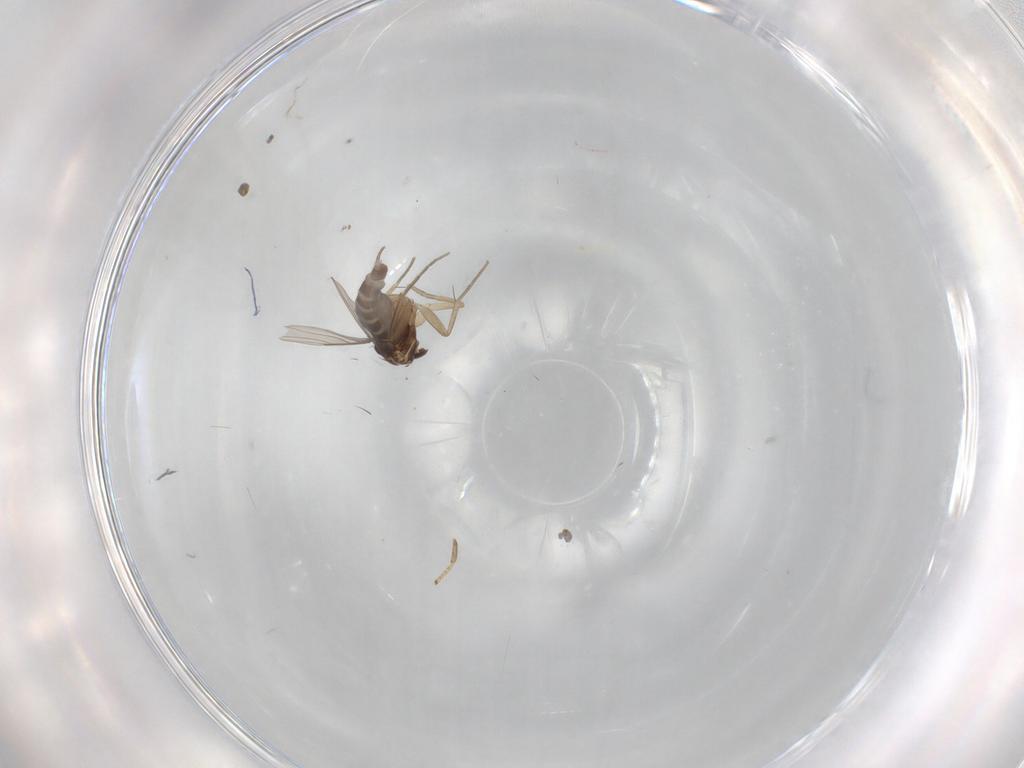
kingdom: Animalia
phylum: Arthropoda
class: Insecta
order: Diptera
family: Phoridae
